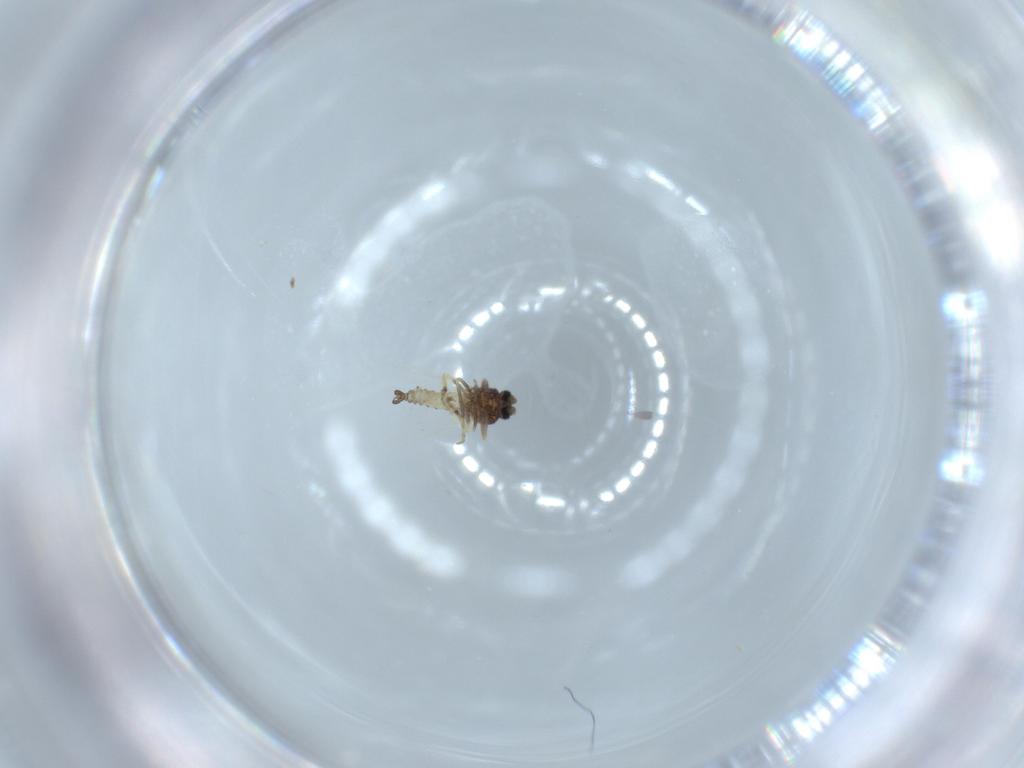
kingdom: Animalia
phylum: Arthropoda
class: Insecta
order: Diptera
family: Ceratopogonidae
